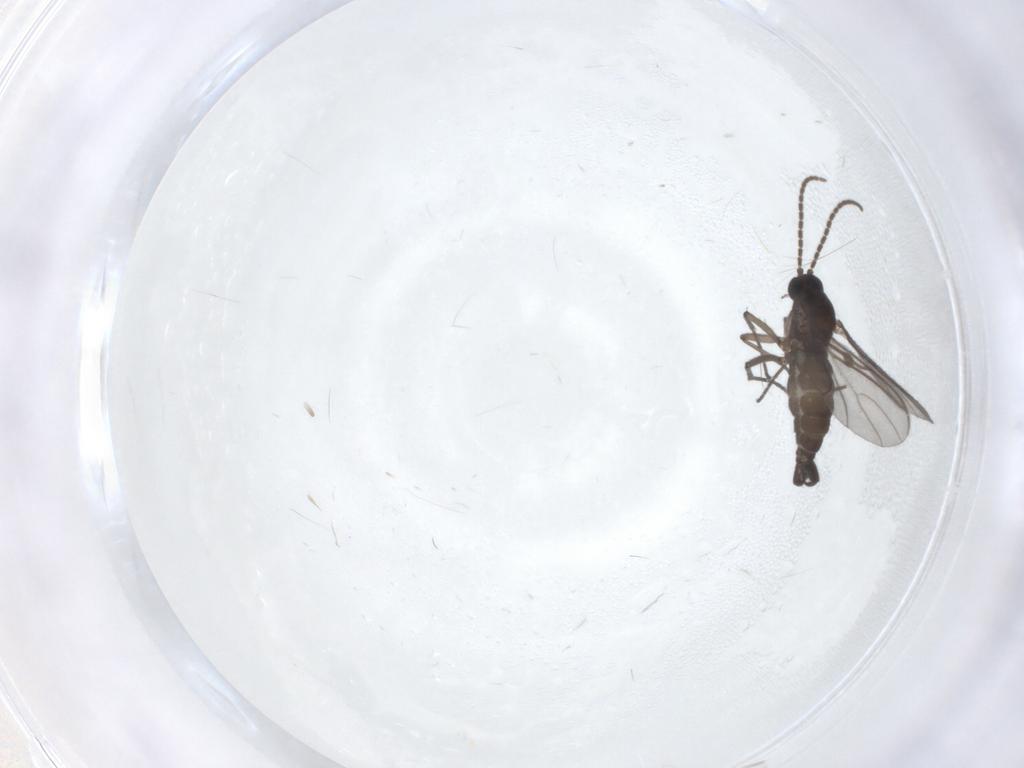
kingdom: Animalia
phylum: Arthropoda
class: Insecta
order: Diptera
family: Sciaridae
